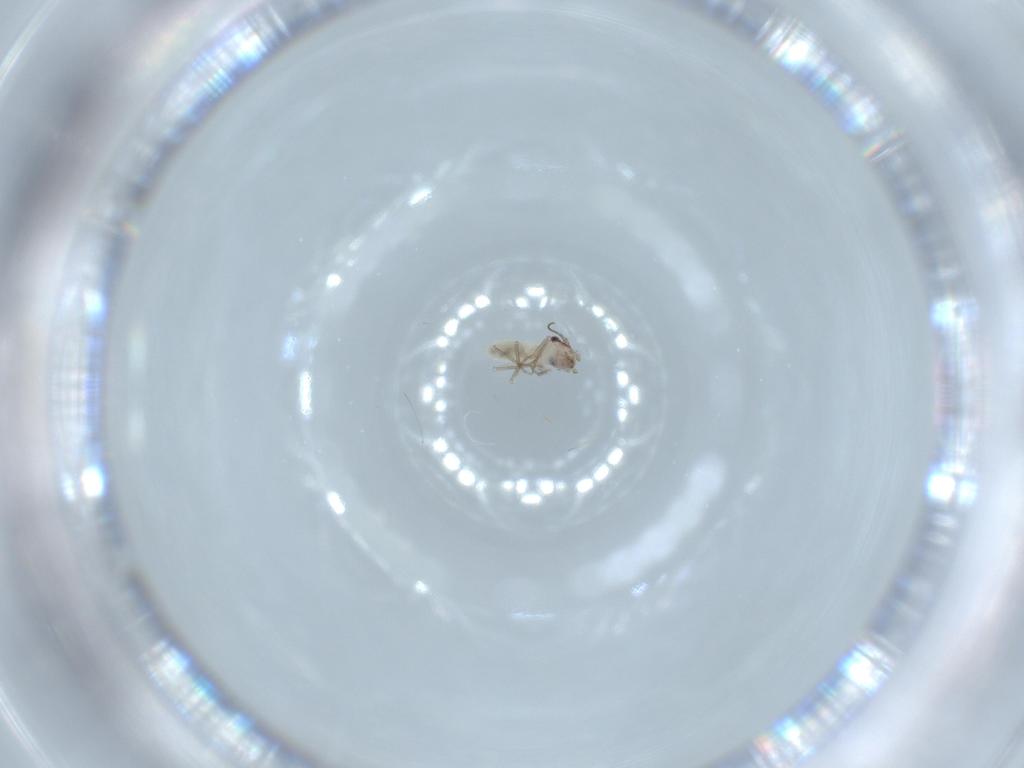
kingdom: Animalia
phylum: Arthropoda
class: Insecta
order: Psocodea
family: Lepidopsocidae
